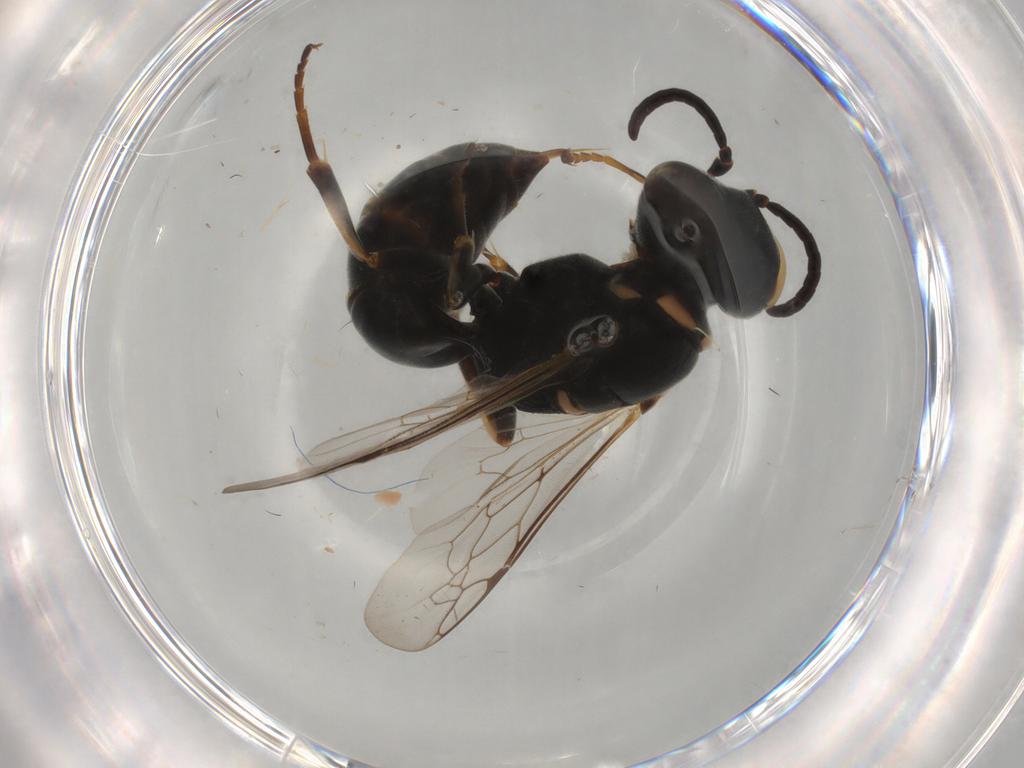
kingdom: Animalia
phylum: Arthropoda
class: Insecta
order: Hymenoptera
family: Crabronidae
